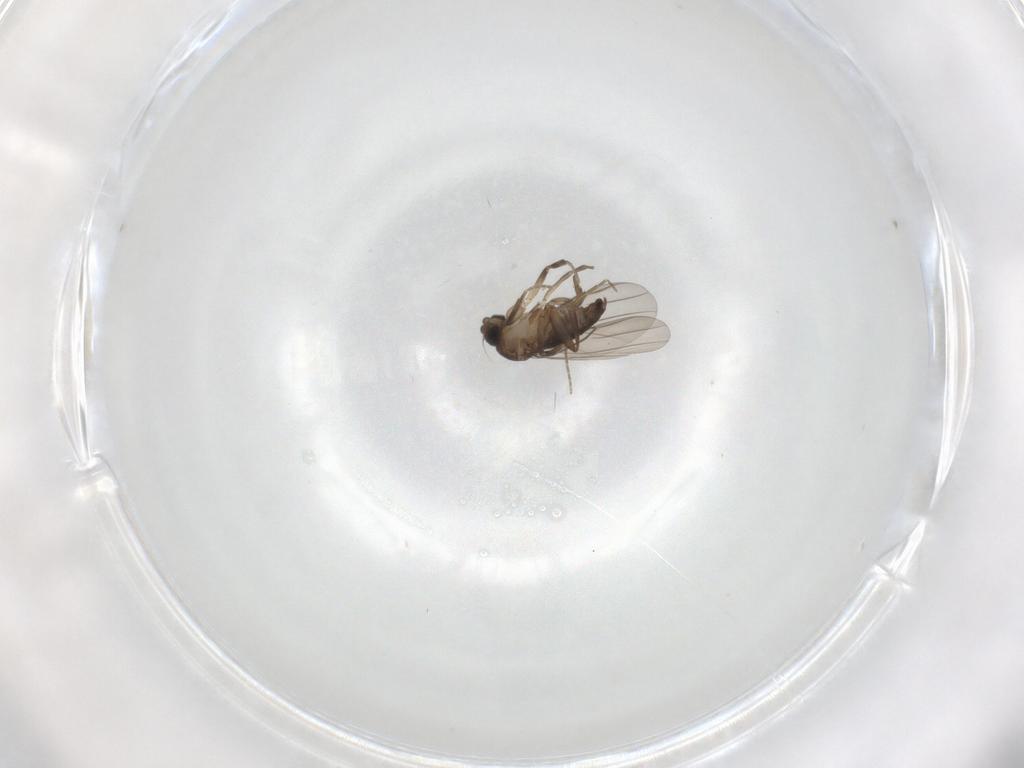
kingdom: Animalia
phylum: Arthropoda
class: Insecta
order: Diptera
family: Phoridae
